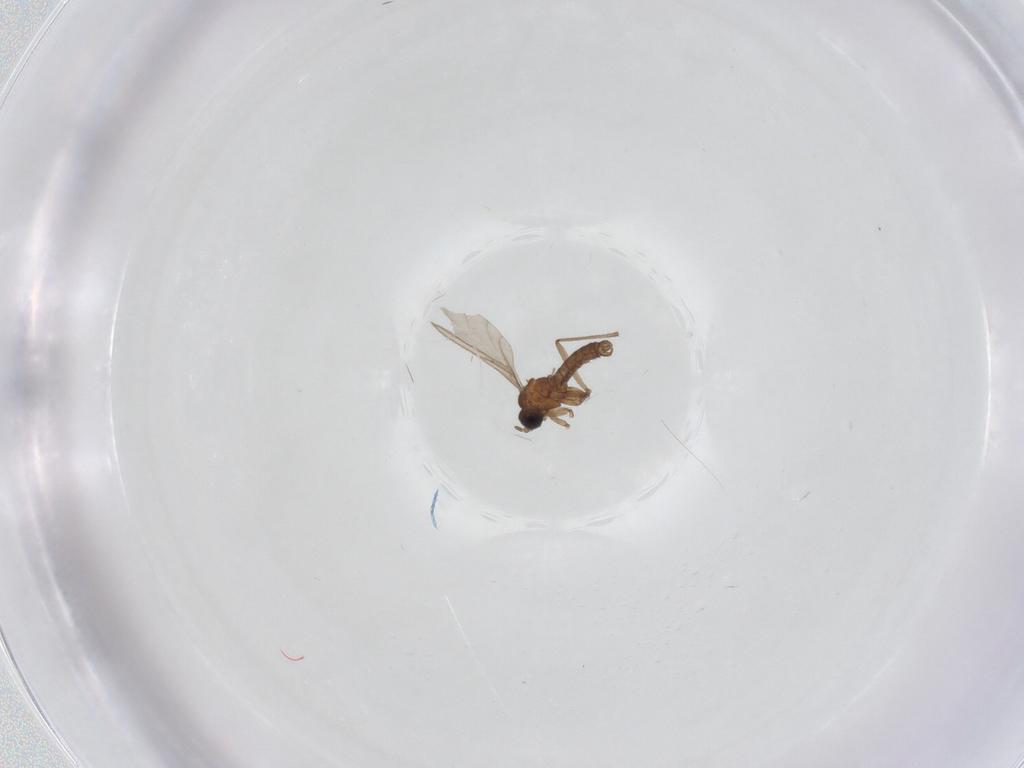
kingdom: Animalia
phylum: Arthropoda
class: Insecta
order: Diptera
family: Sciaridae
